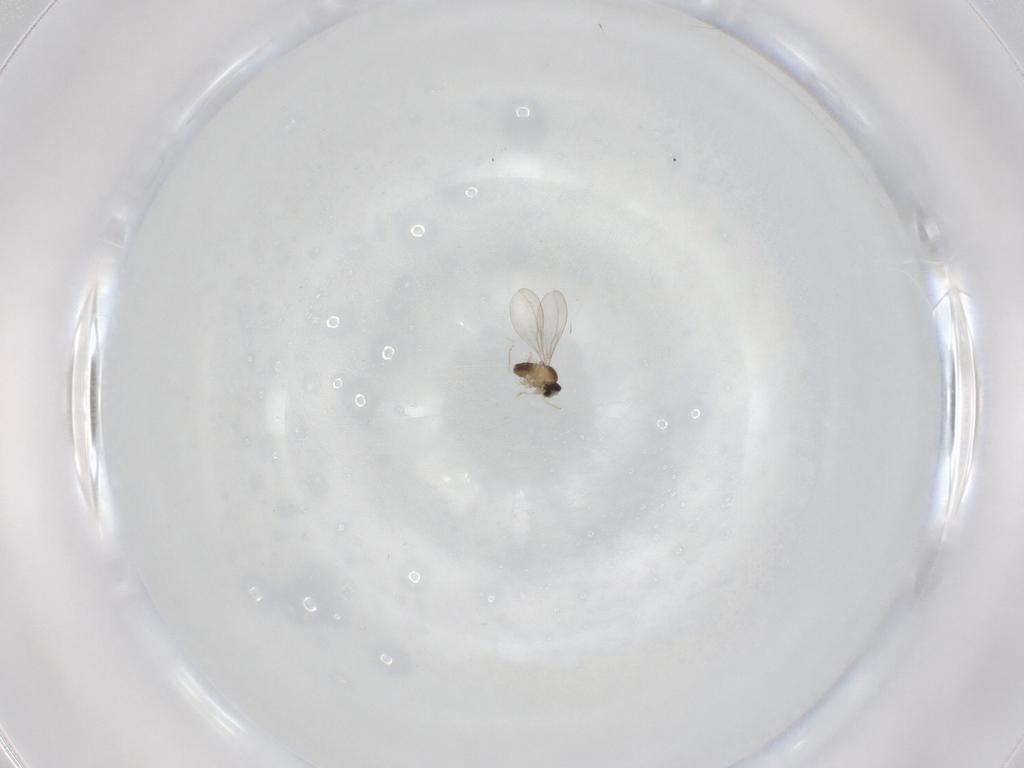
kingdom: Animalia
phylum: Arthropoda
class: Insecta
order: Diptera
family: Cecidomyiidae
